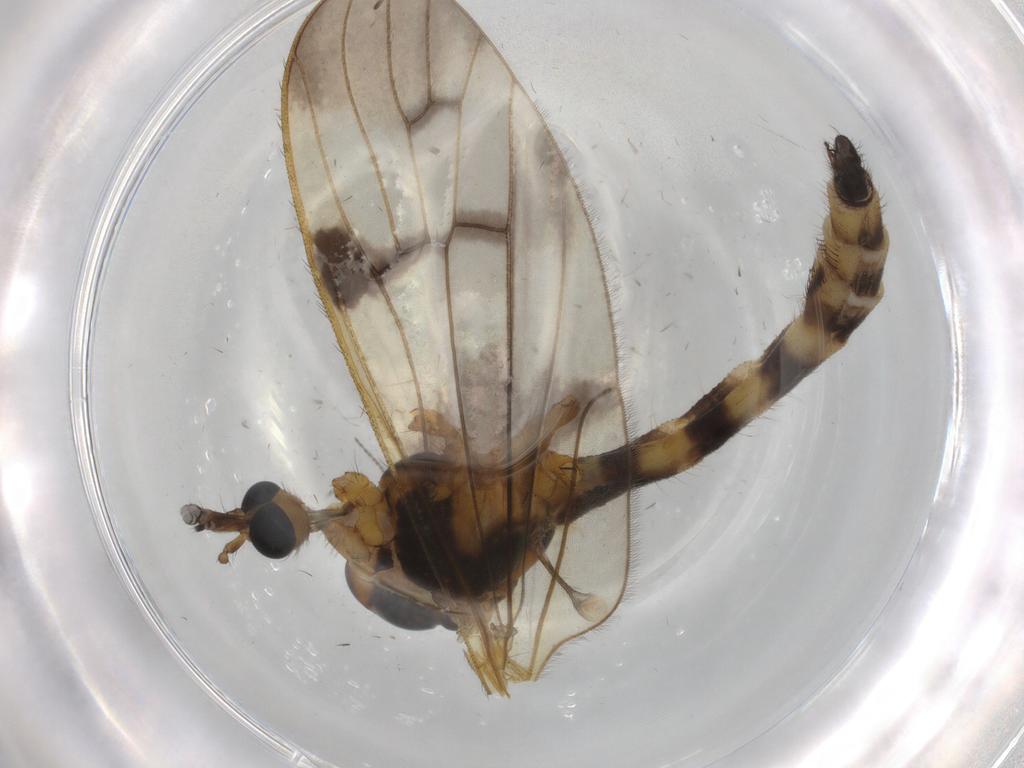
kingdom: Animalia
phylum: Arthropoda
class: Insecta
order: Diptera
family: Limoniidae
